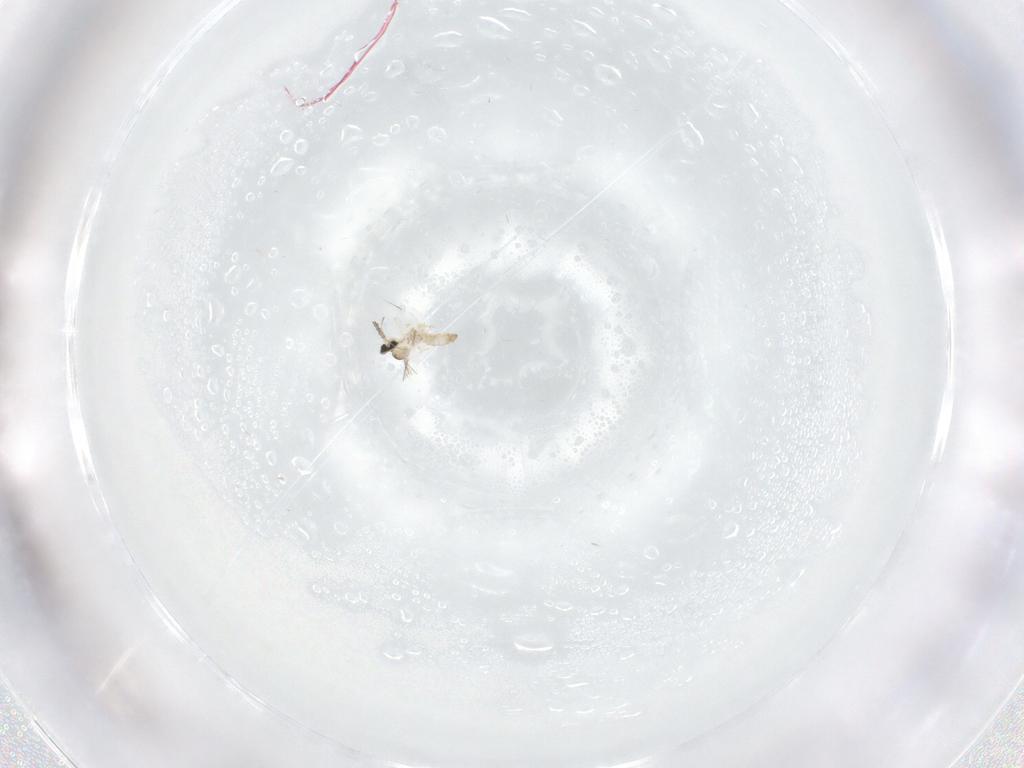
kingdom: Animalia
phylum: Arthropoda
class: Insecta
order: Diptera
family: Cecidomyiidae
